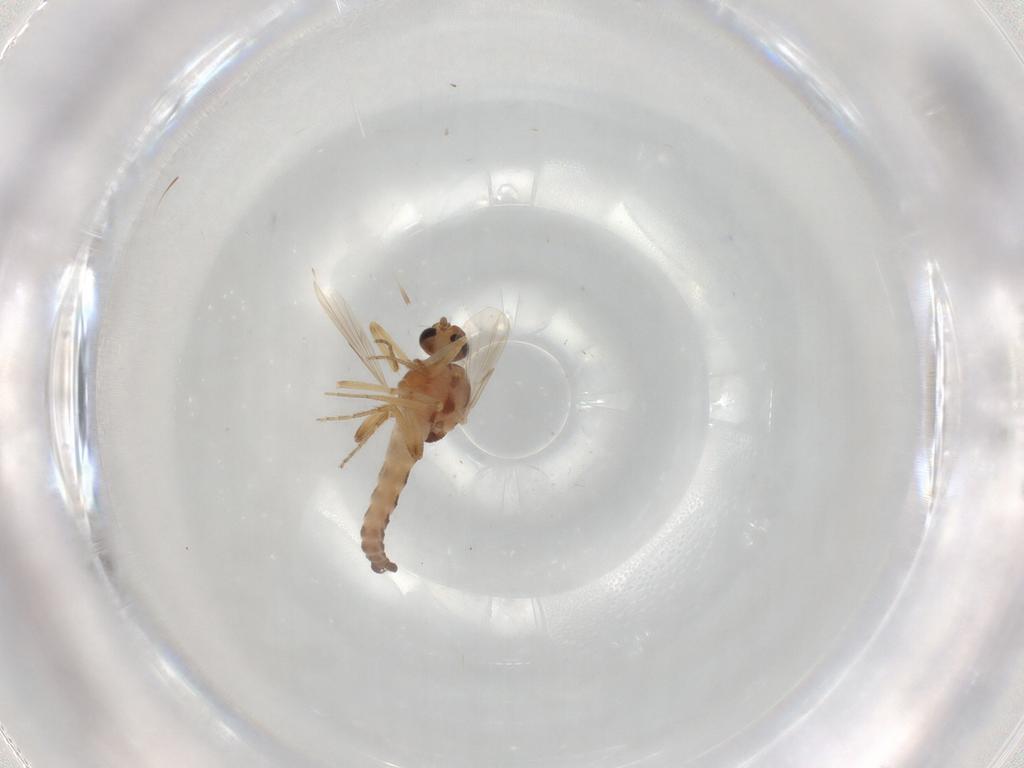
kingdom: Animalia
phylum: Arthropoda
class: Insecta
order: Diptera
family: Ceratopogonidae
